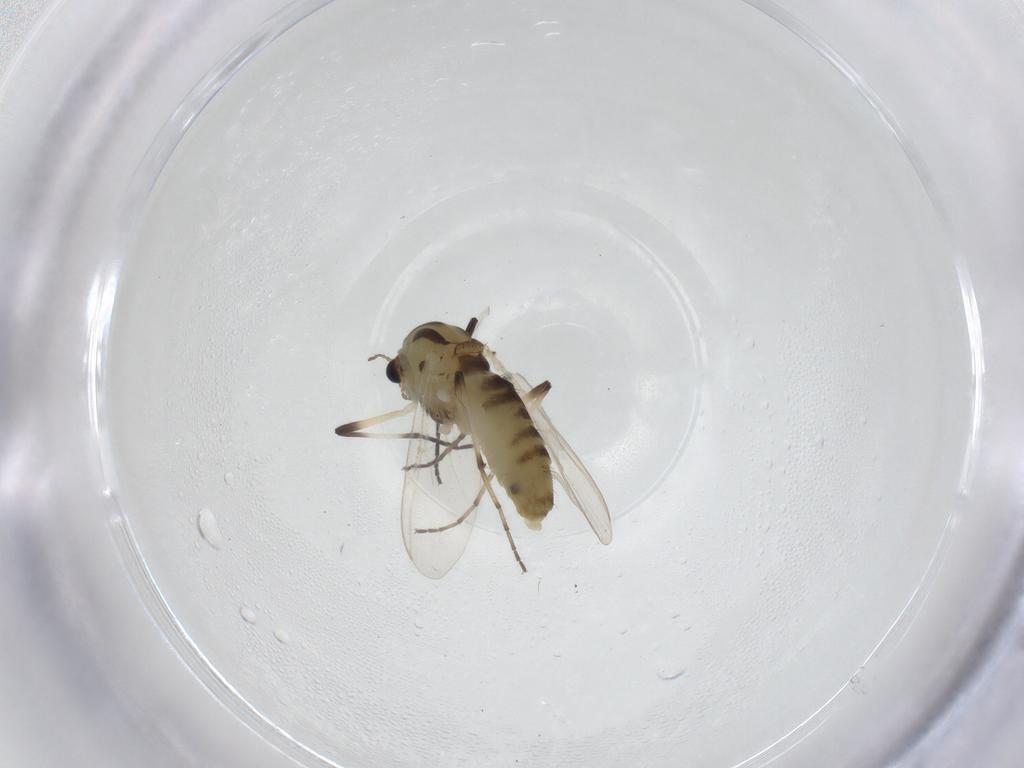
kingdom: Animalia
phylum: Arthropoda
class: Insecta
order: Diptera
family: Chironomidae
